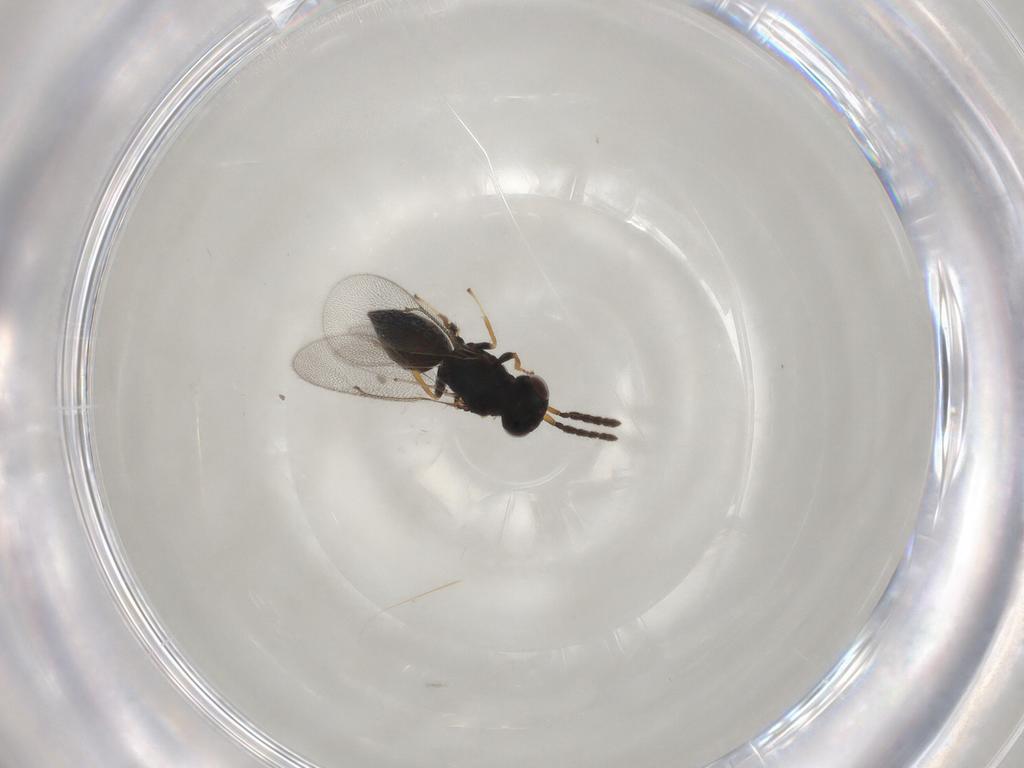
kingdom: Animalia
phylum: Arthropoda
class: Insecta
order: Hymenoptera
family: Eulophidae
